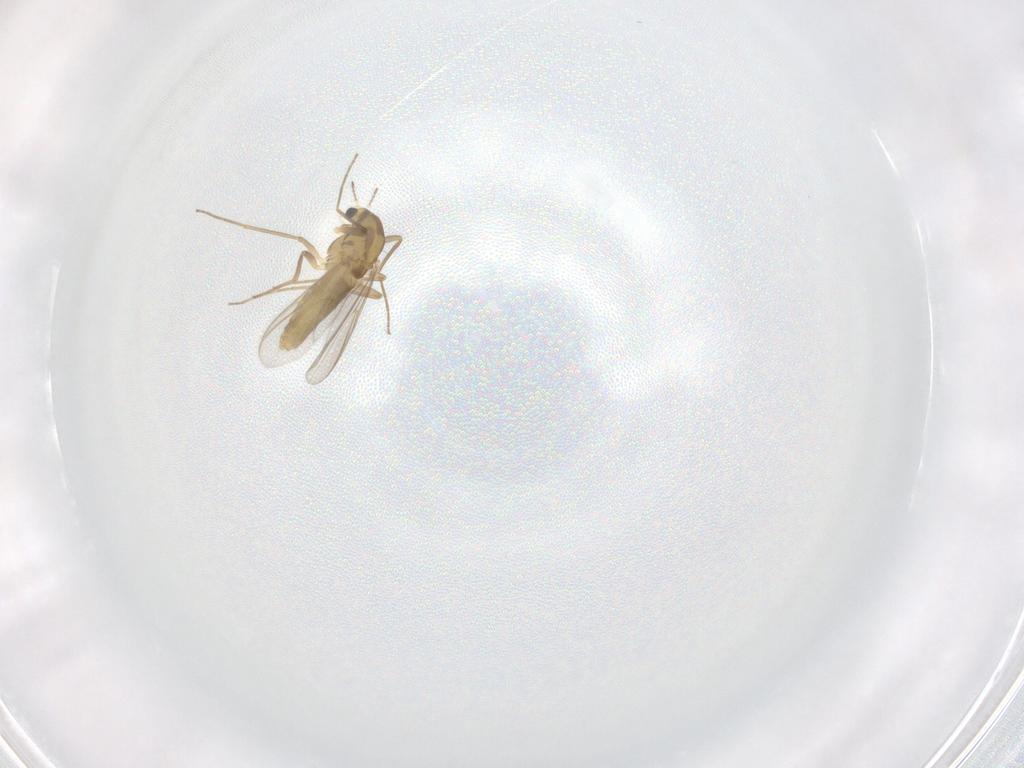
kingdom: Animalia
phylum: Arthropoda
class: Insecta
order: Diptera
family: Chironomidae
